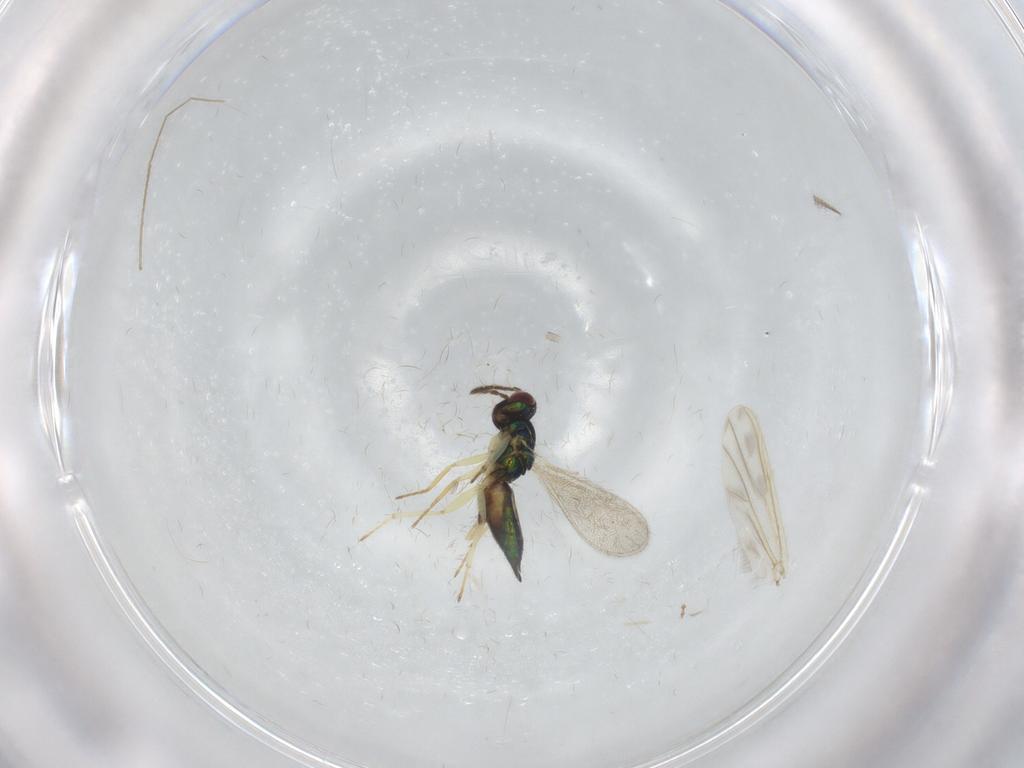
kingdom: Animalia
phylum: Arthropoda
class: Insecta
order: Hymenoptera
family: Eulophidae
